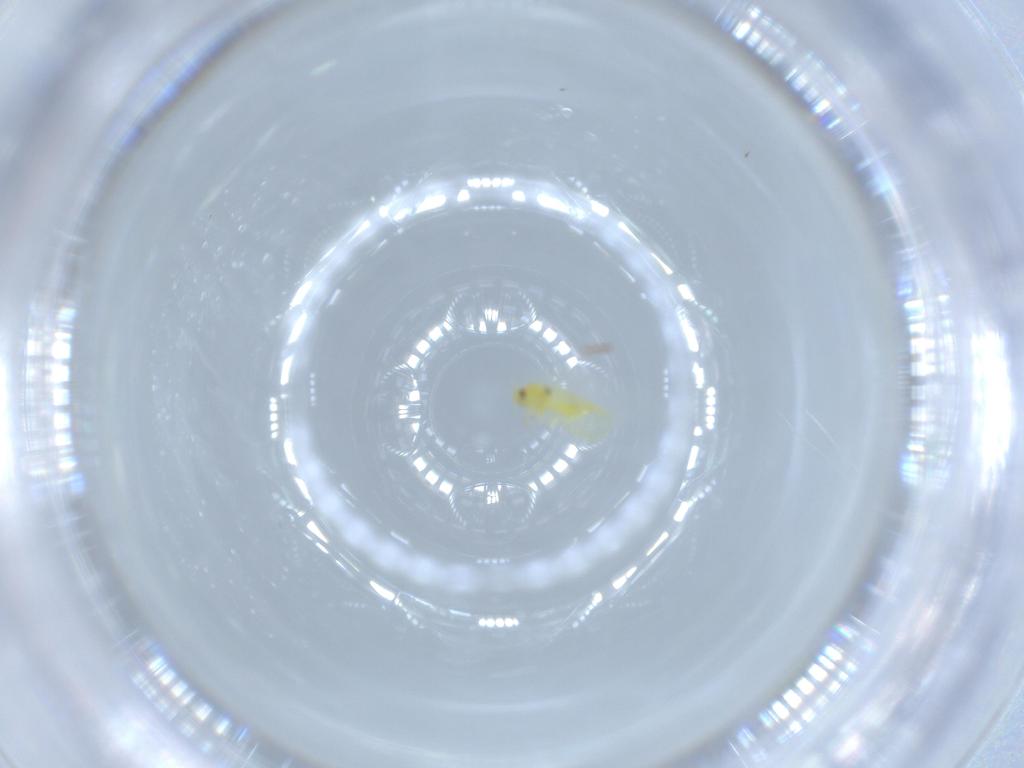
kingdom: Animalia
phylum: Arthropoda
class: Insecta
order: Hemiptera
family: Aleyrodidae
